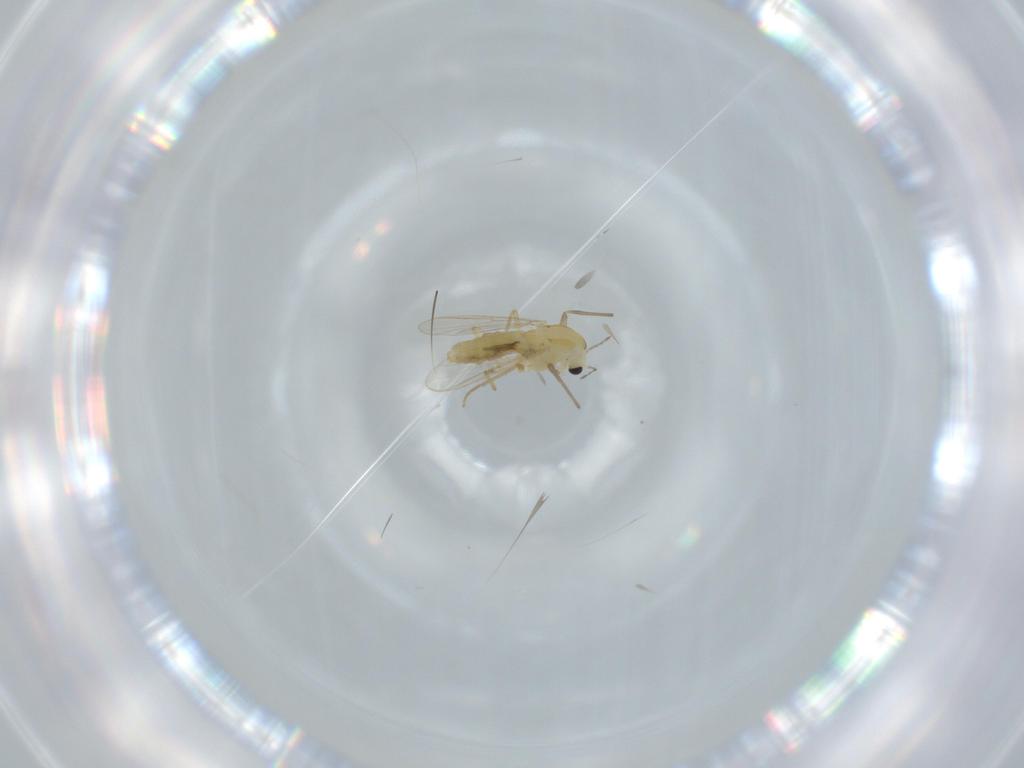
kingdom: Animalia
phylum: Arthropoda
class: Insecta
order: Diptera
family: Chironomidae
